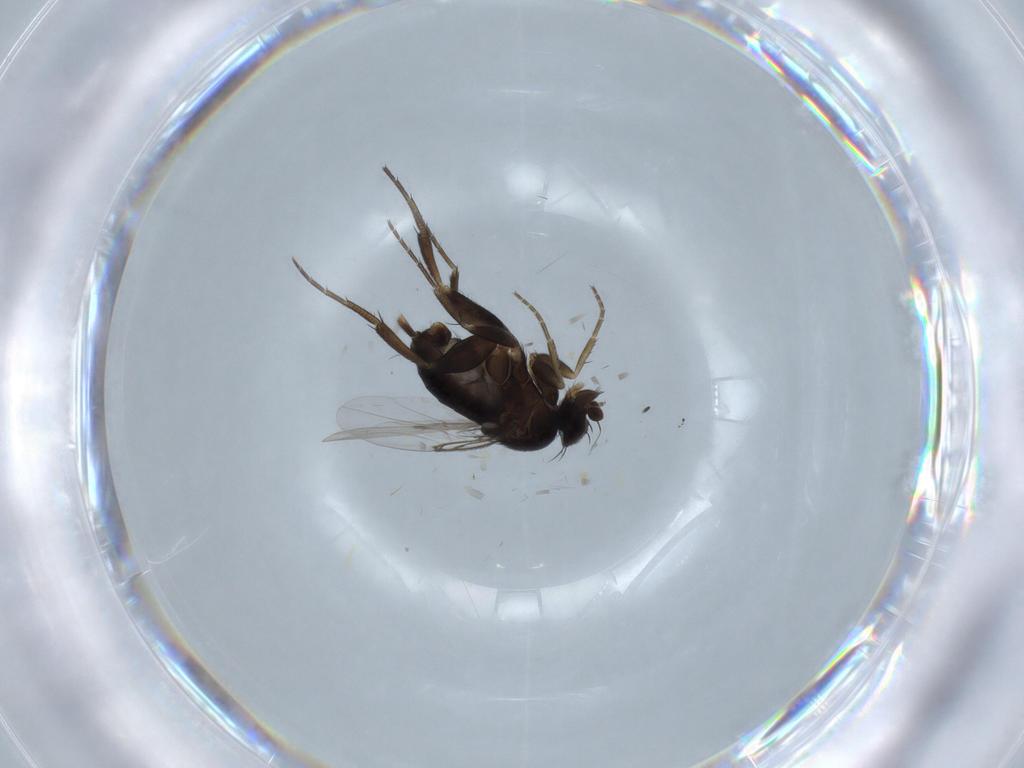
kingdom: Animalia
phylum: Arthropoda
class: Insecta
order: Diptera
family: Phoridae
